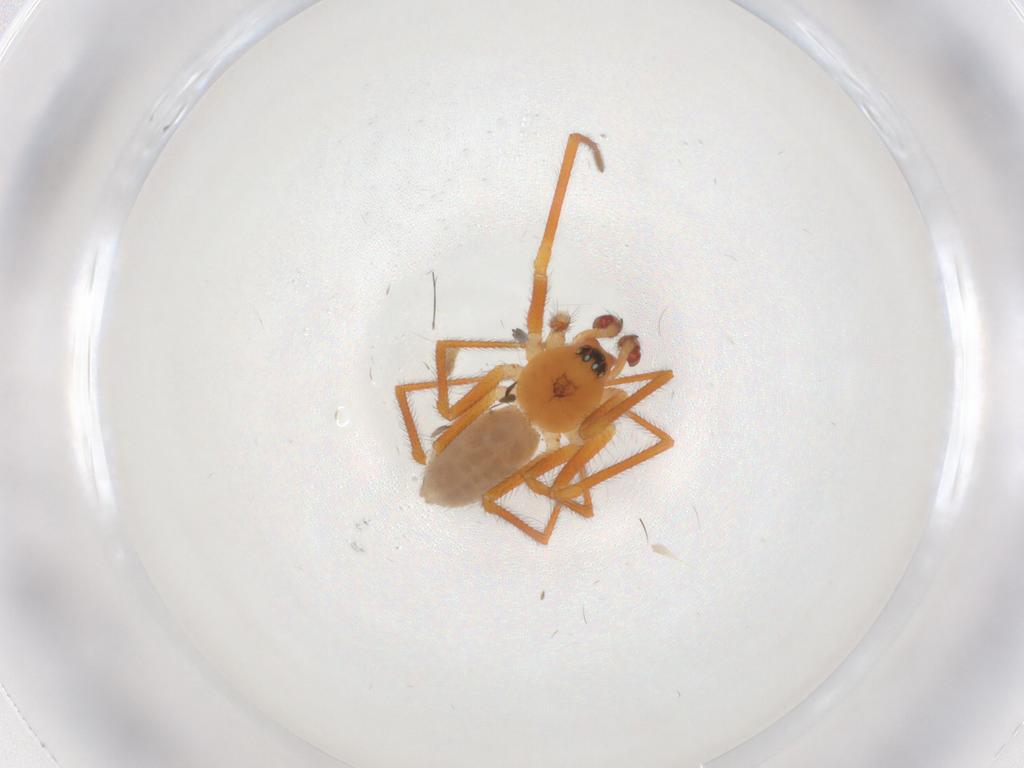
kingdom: Animalia
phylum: Arthropoda
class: Arachnida
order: Araneae
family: Linyphiidae
